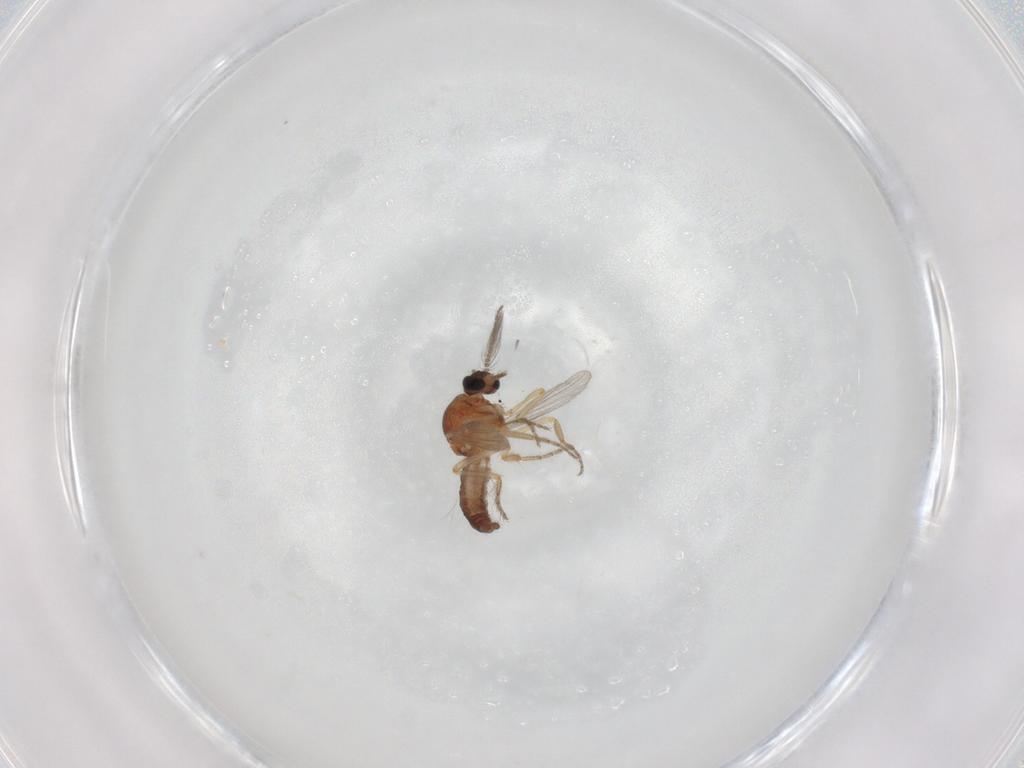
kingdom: Animalia
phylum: Arthropoda
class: Insecta
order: Diptera
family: Ceratopogonidae
